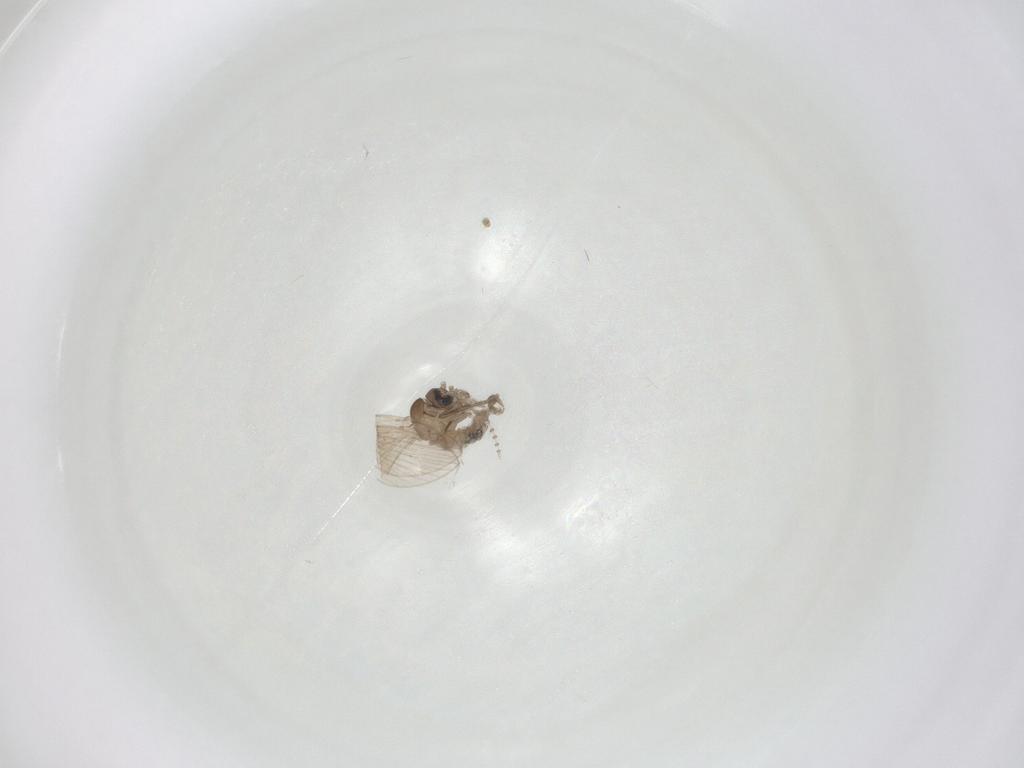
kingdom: Animalia
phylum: Arthropoda
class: Insecta
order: Diptera
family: Psychodidae
